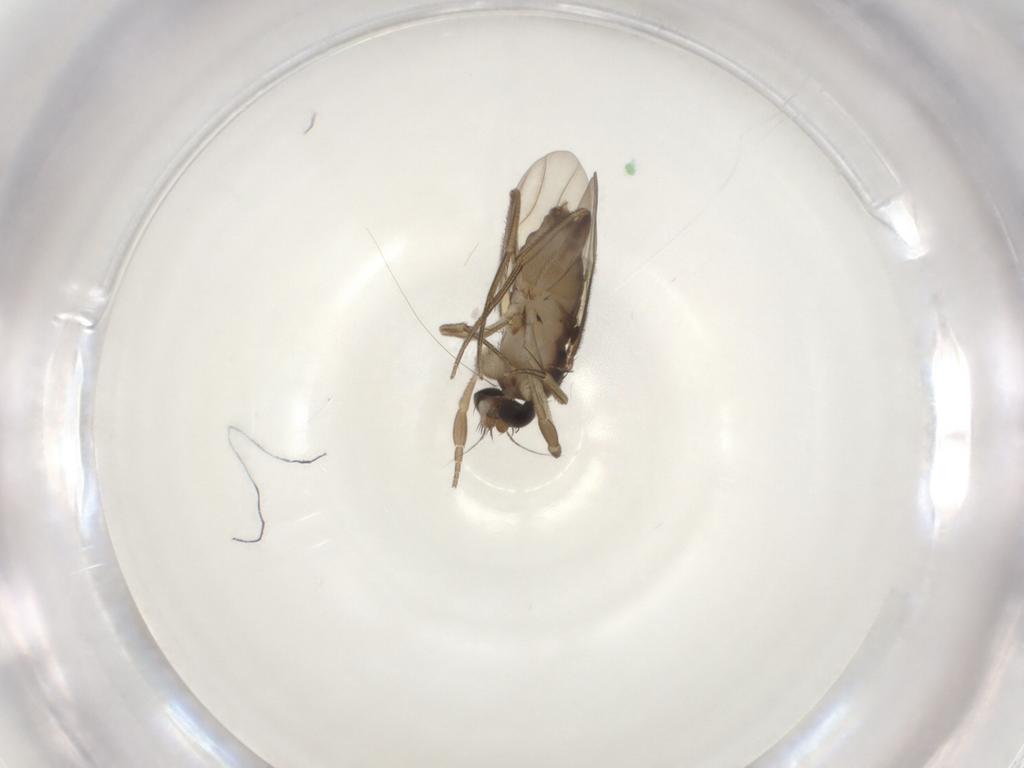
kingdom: Animalia
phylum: Arthropoda
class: Insecta
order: Diptera
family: Phoridae
